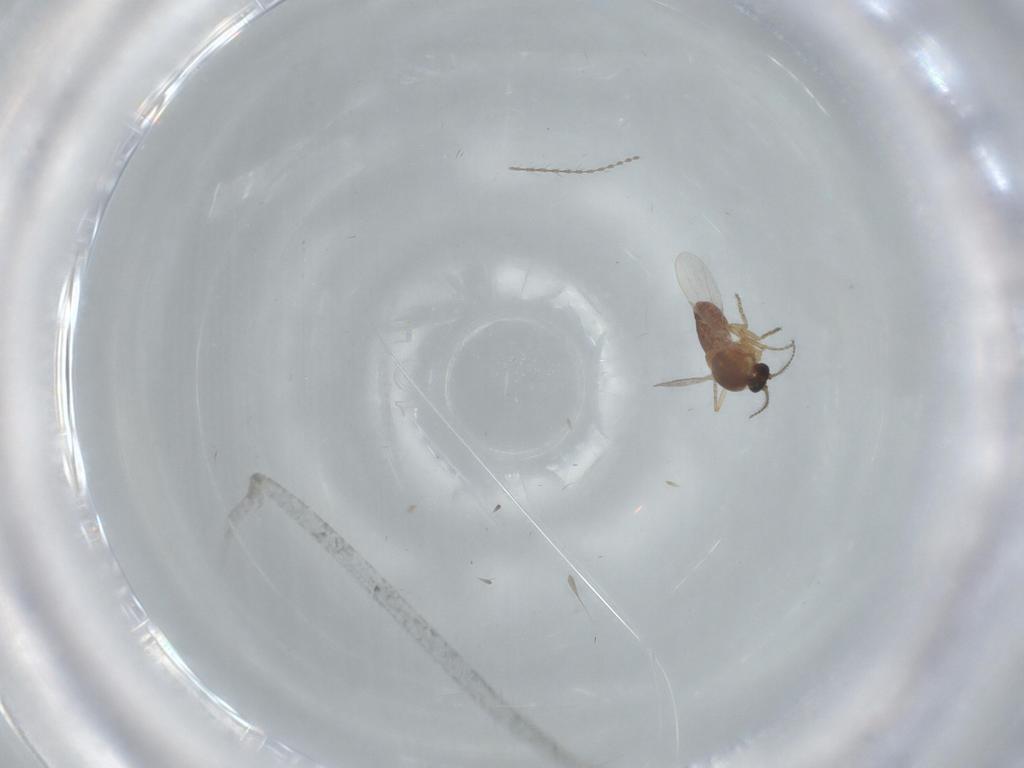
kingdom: Animalia
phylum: Arthropoda
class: Insecta
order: Diptera
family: Ceratopogonidae
